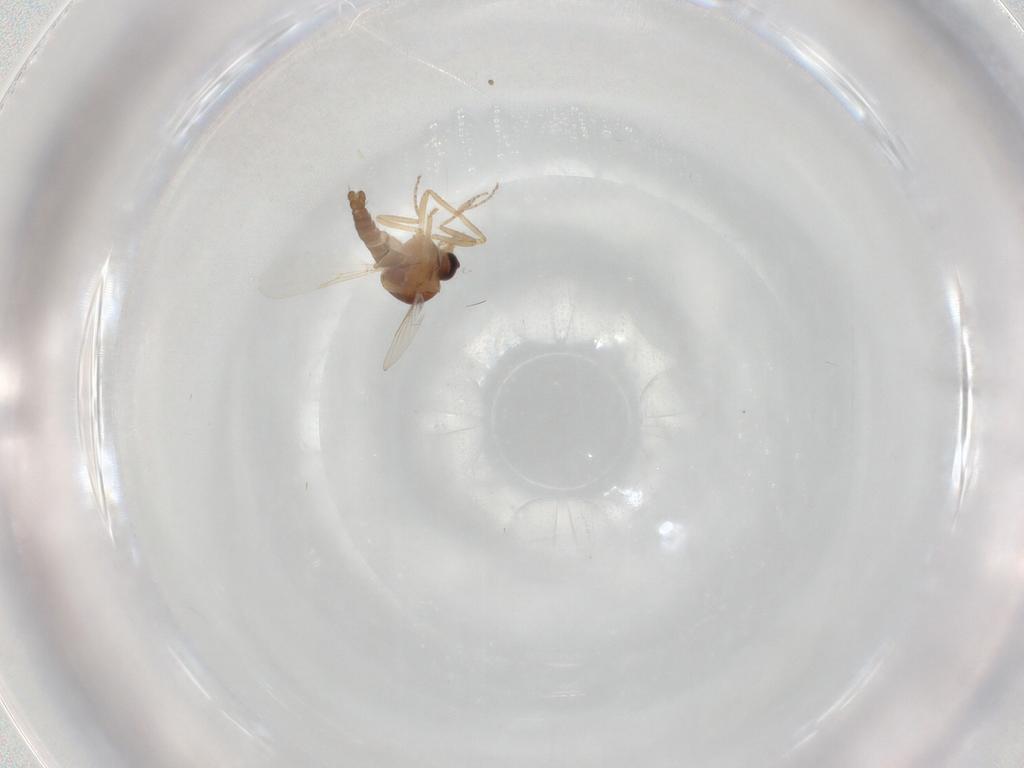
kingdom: Animalia
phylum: Arthropoda
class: Insecta
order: Diptera
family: Ceratopogonidae
